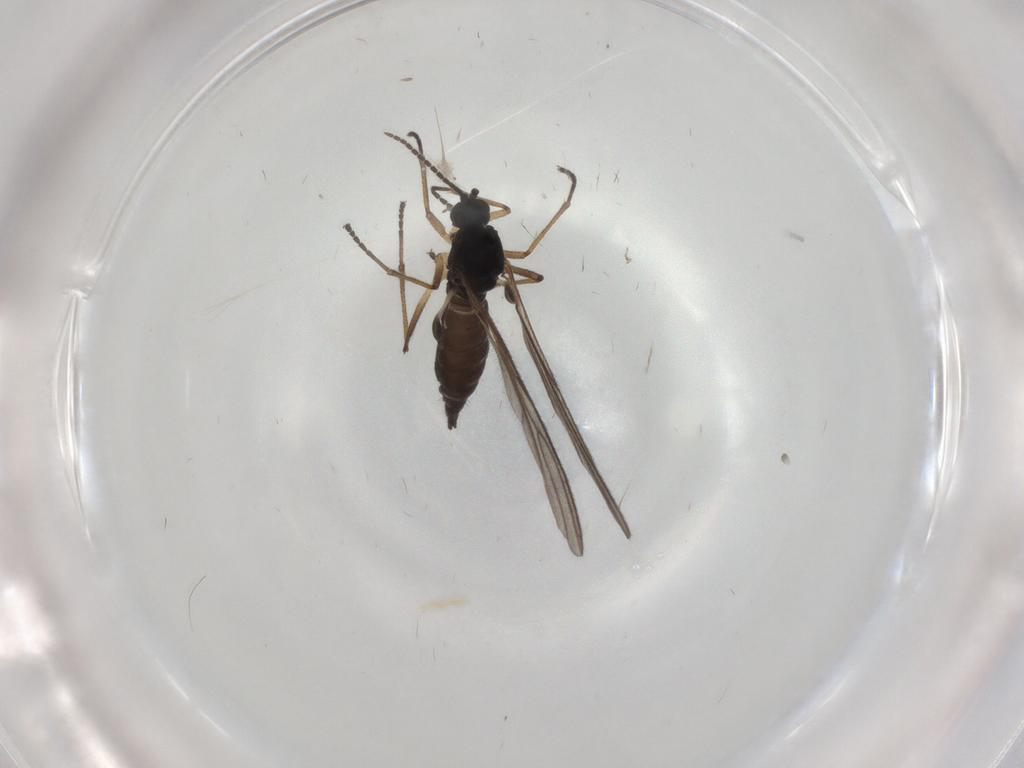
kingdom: Animalia
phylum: Arthropoda
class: Insecta
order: Diptera
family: Sciaridae
